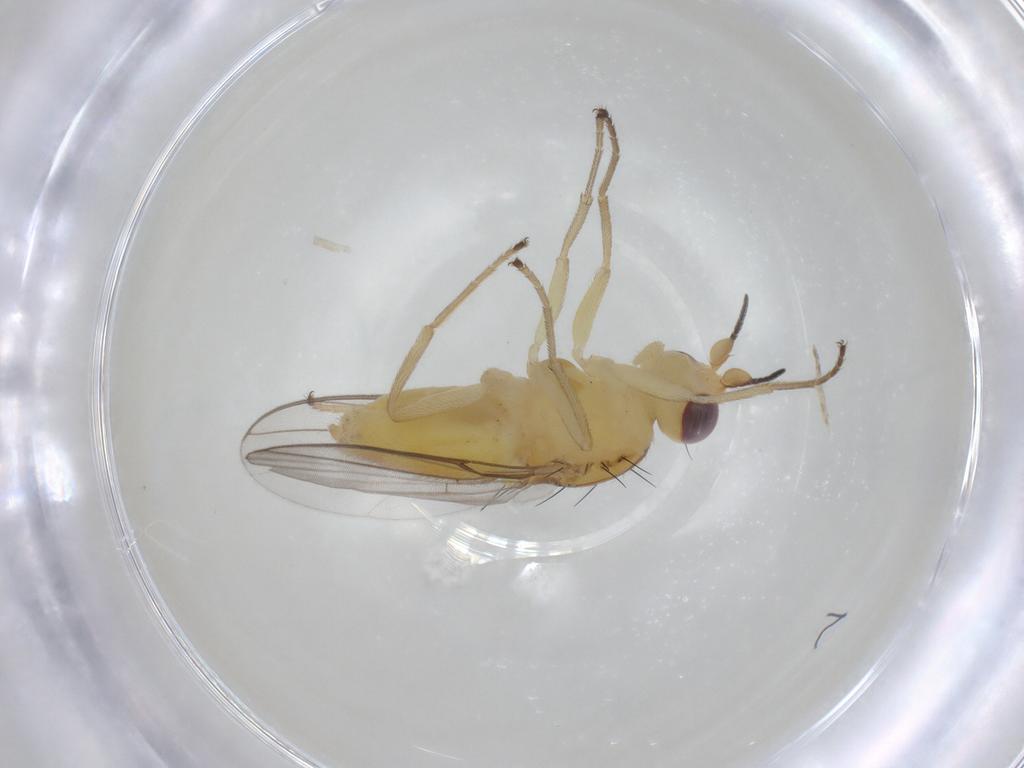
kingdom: Animalia
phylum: Arthropoda
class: Insecta
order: Diptera
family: Chloropidae
